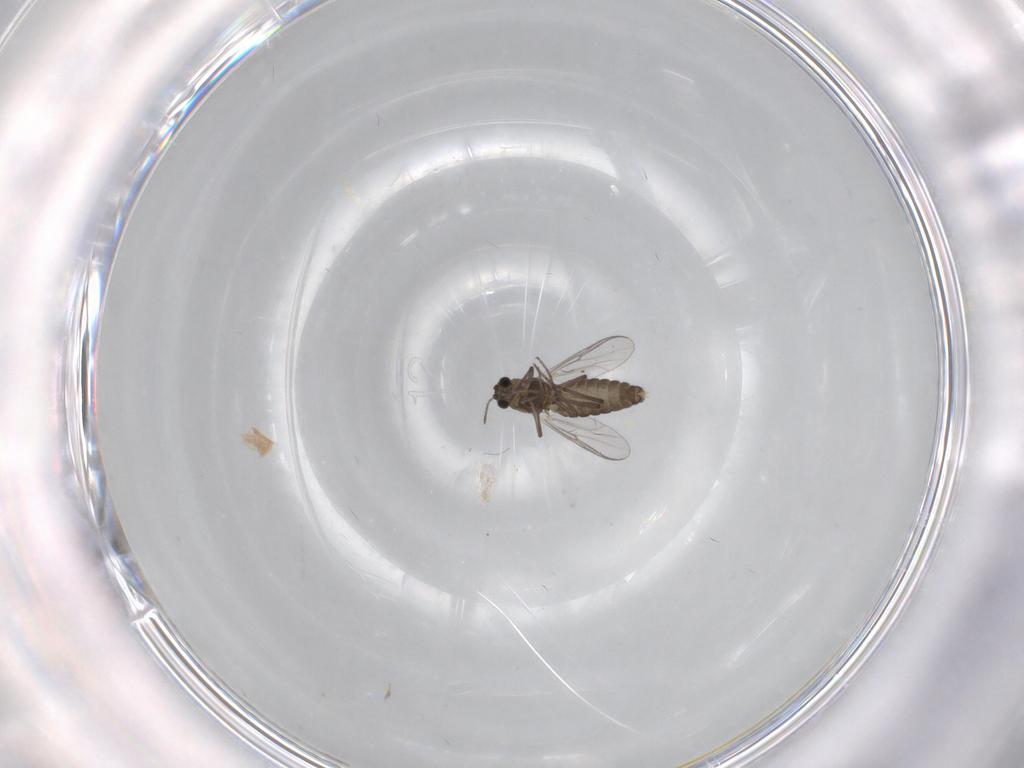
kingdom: Animalia
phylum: Arthropoda
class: Insecta
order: Diptera
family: Chironomidae
